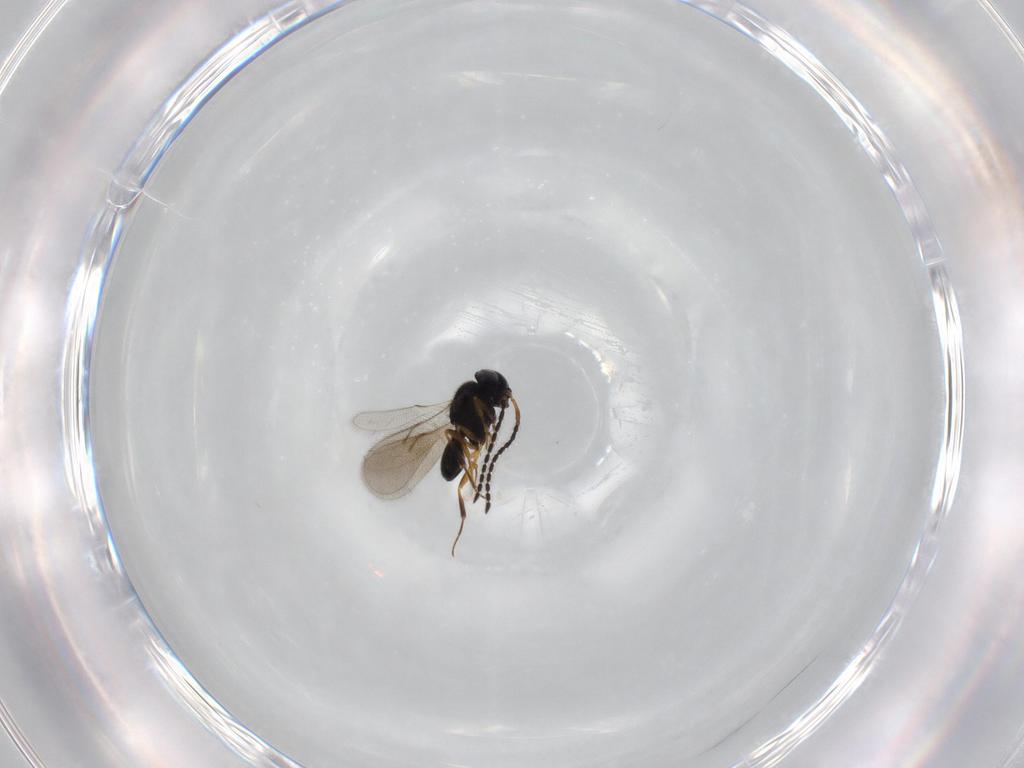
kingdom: Animalia
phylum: Arthropoda
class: Insecta
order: Hymenoptera
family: Scelionidae
